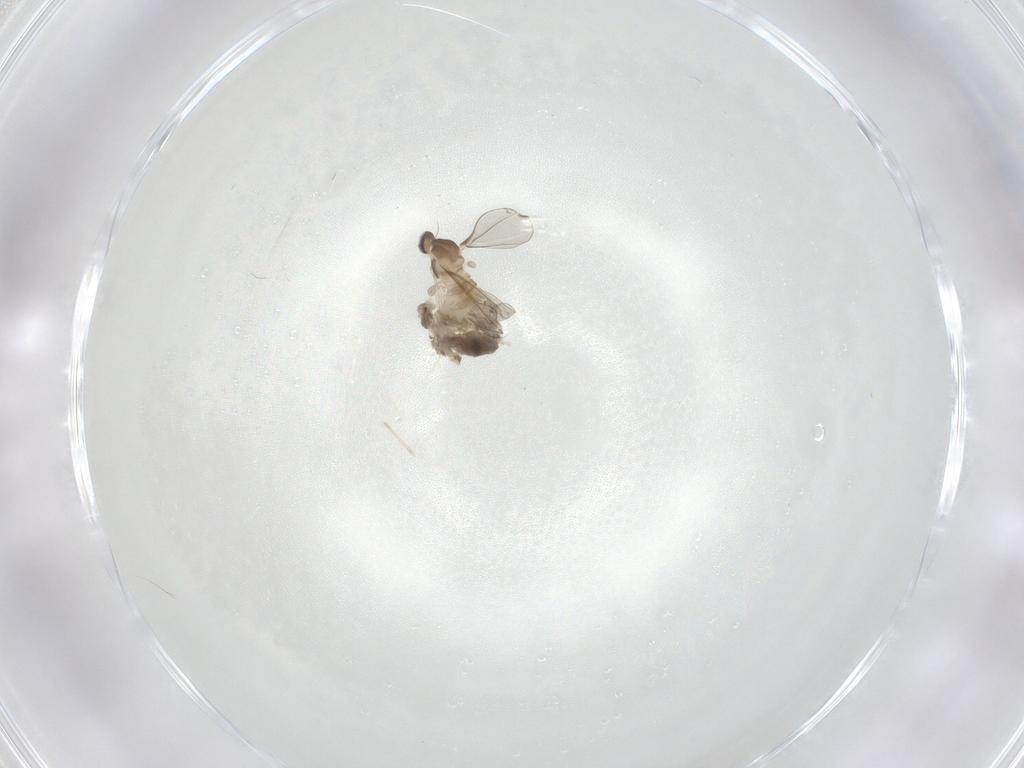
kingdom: Animalia
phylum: Arthropoda
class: Insecta
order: Diptera
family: Cecidomyiidae
